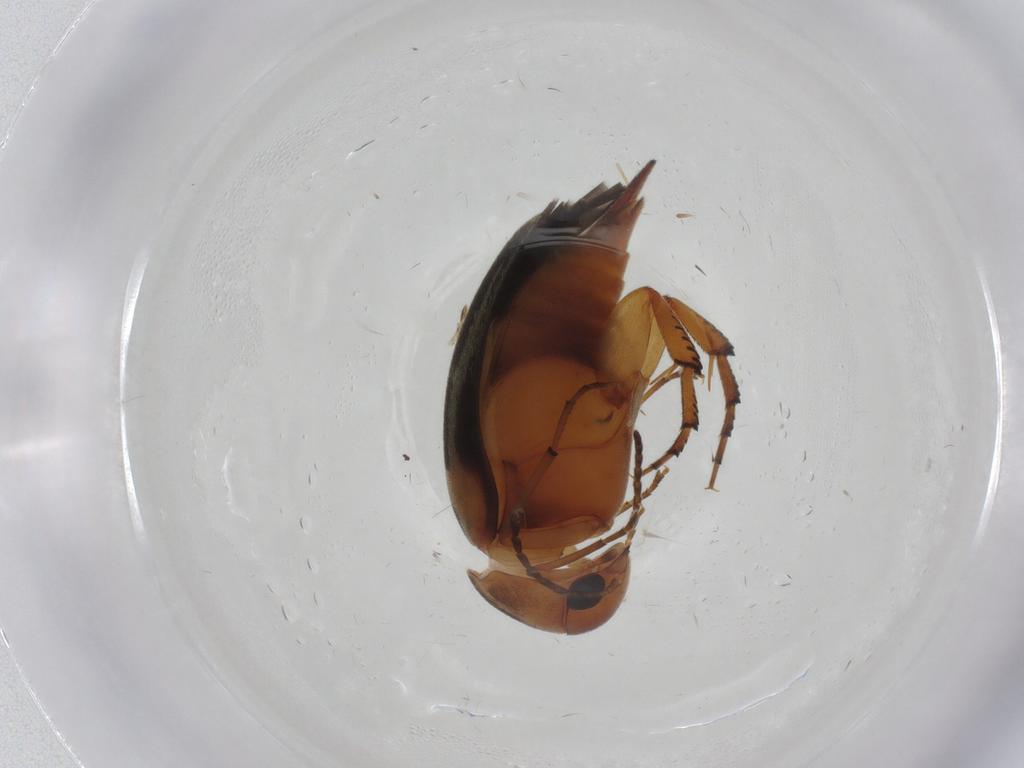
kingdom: Animalia
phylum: Arthropoda
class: Insecta
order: Coleoptera
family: Mordellidae
